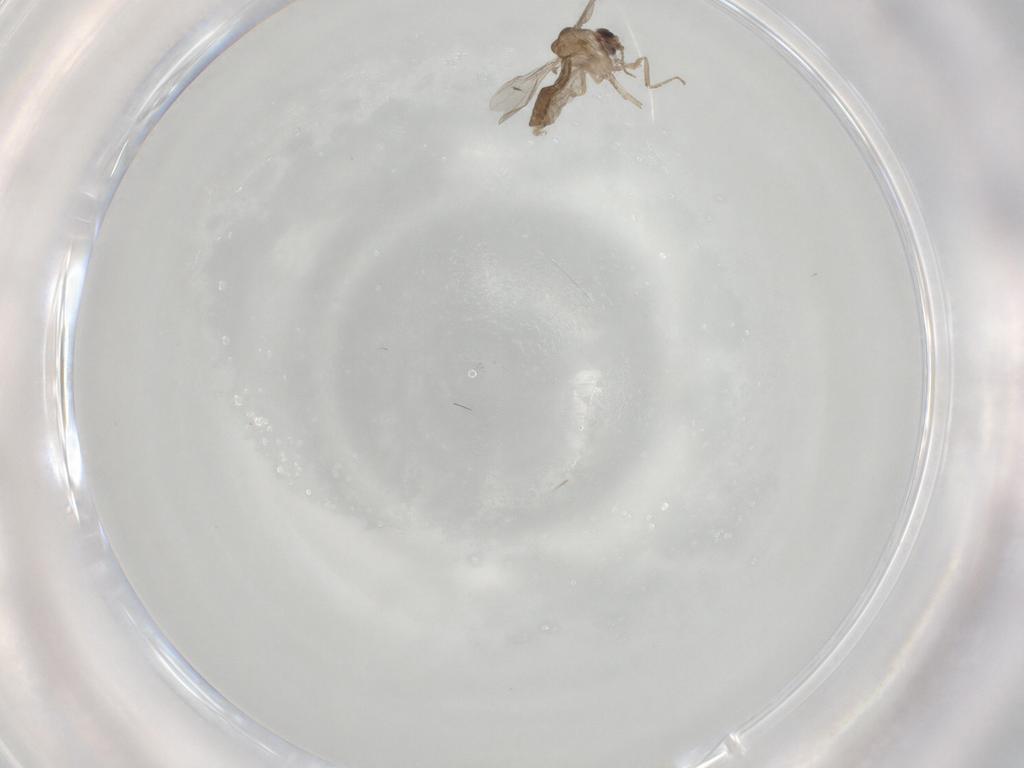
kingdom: Animalia
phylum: Arthropoda
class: Insecta
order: Diptera
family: Ceratopogonidae
